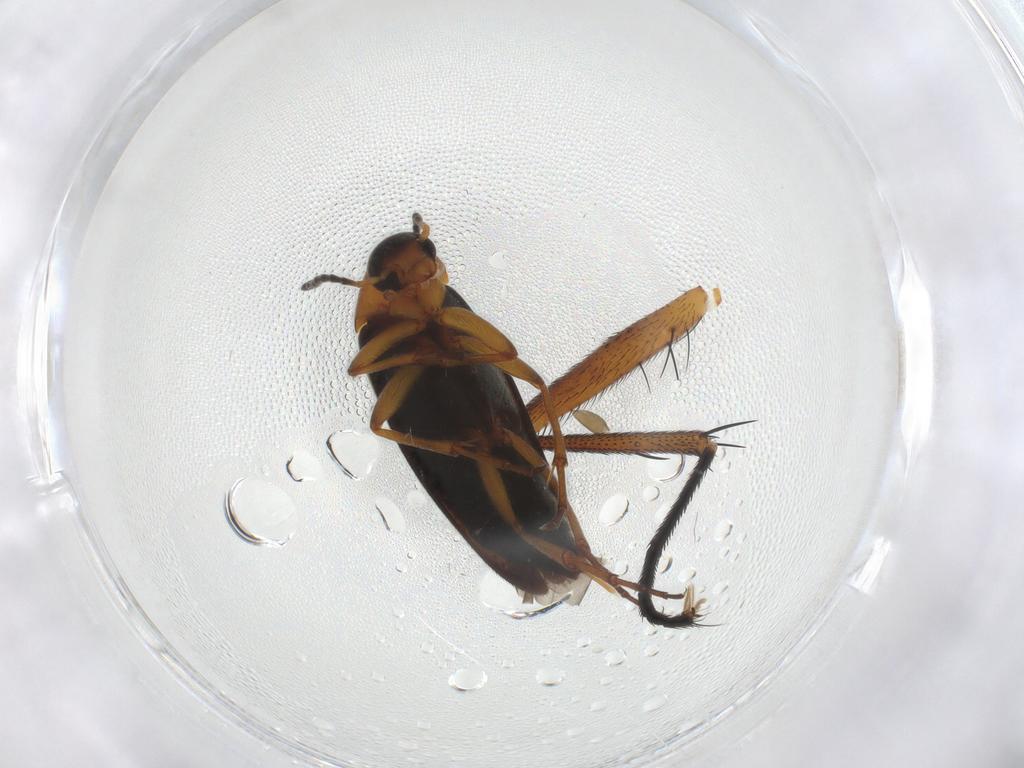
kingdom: Animalia
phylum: Arthropoda
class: Insecta
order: Coleoptera
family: Scraptiidae
